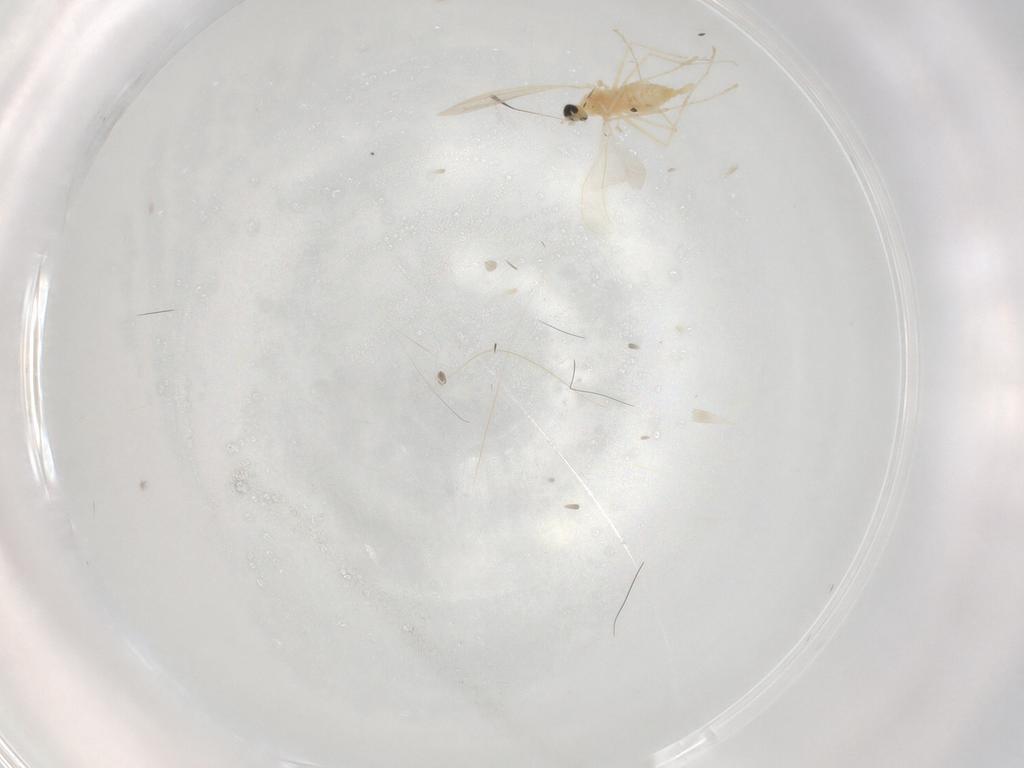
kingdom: Animalia
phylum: Arthropoda
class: Insecta
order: Diptera
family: Cecidomyiidae
